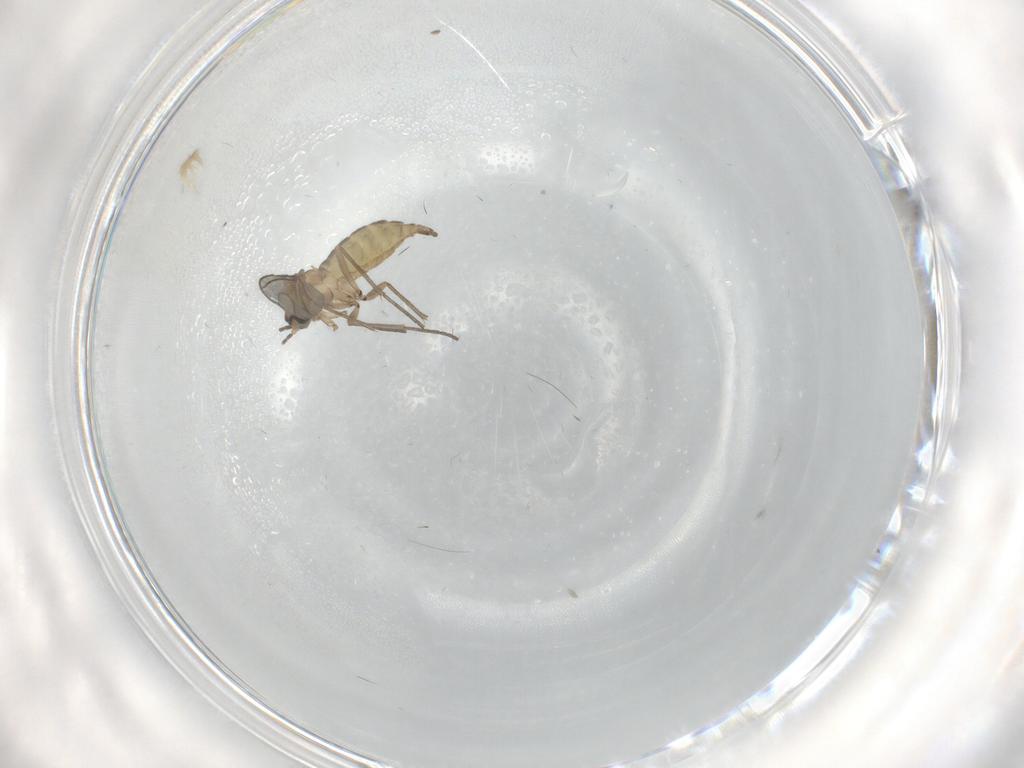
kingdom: Animalia
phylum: Arthropoda
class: Insecta
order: Diptera
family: Sciaridae
